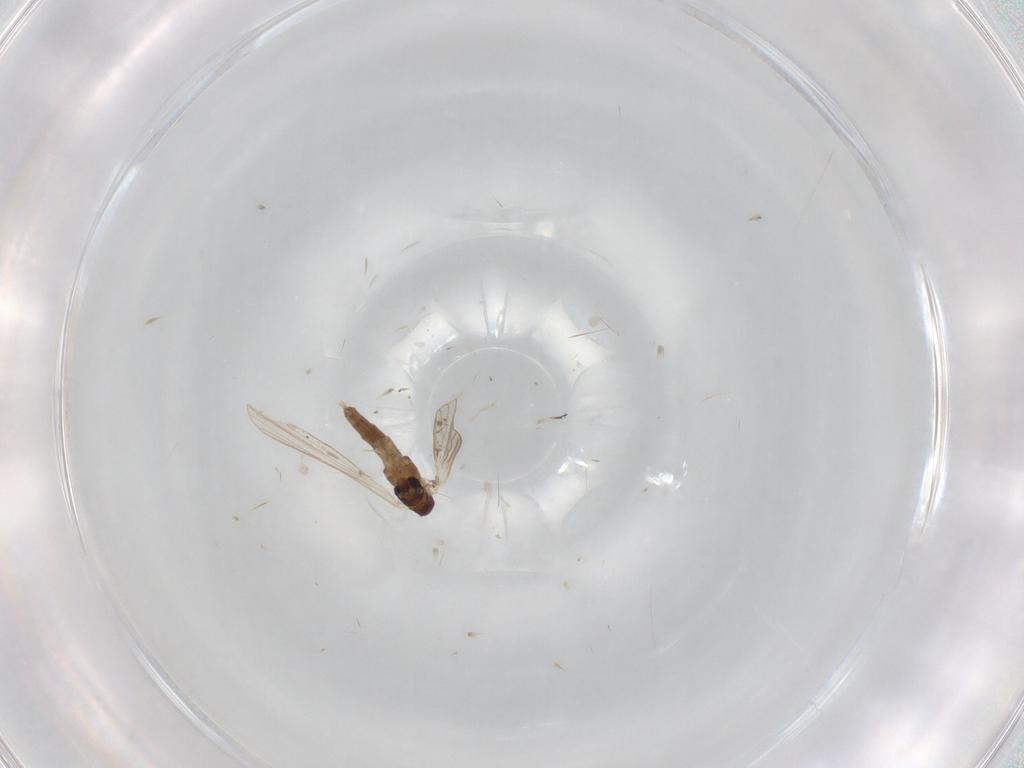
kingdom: Animalia
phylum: Arthropoda
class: Insecta
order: Diptera
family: Psychodidae
